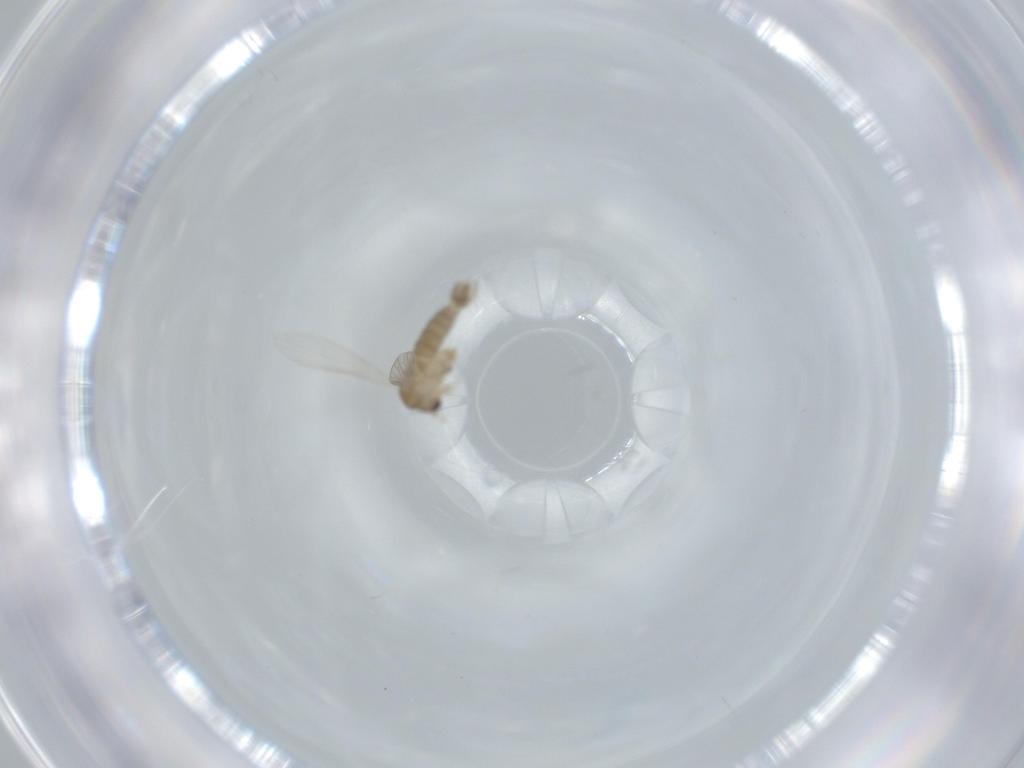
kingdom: Animalia
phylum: Arthropoda
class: Insecta
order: Diptera
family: Psychodidae
